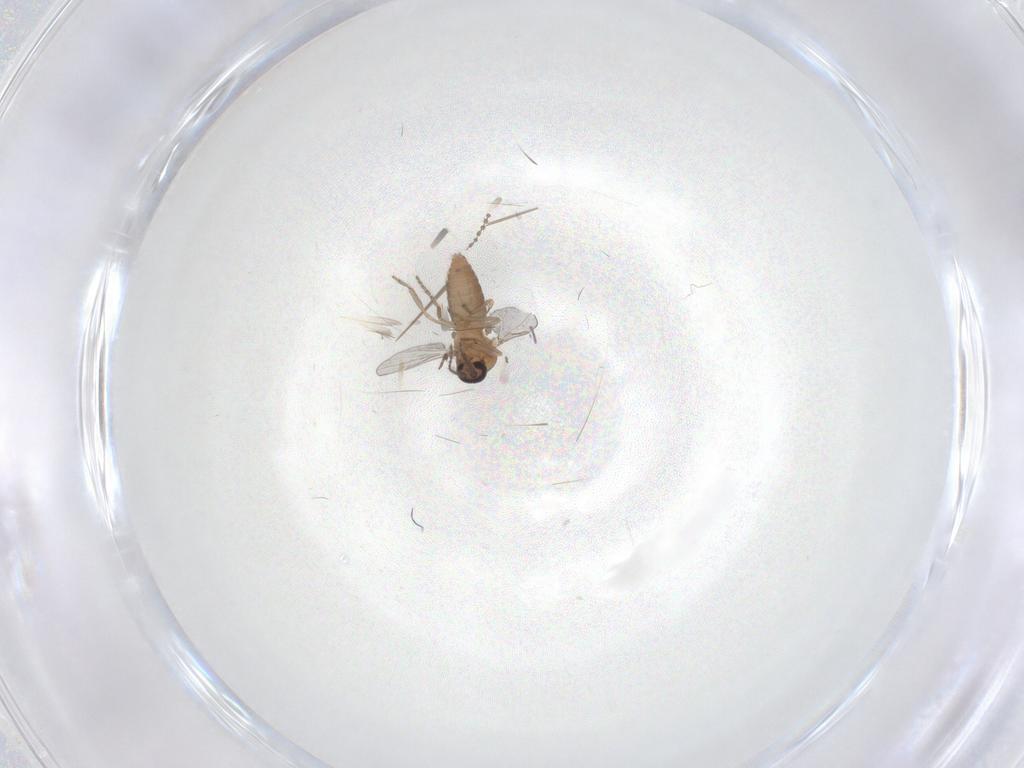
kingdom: Animalia
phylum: Arthropoda
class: Insecta
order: Diptera
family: Ceratopogonidae
